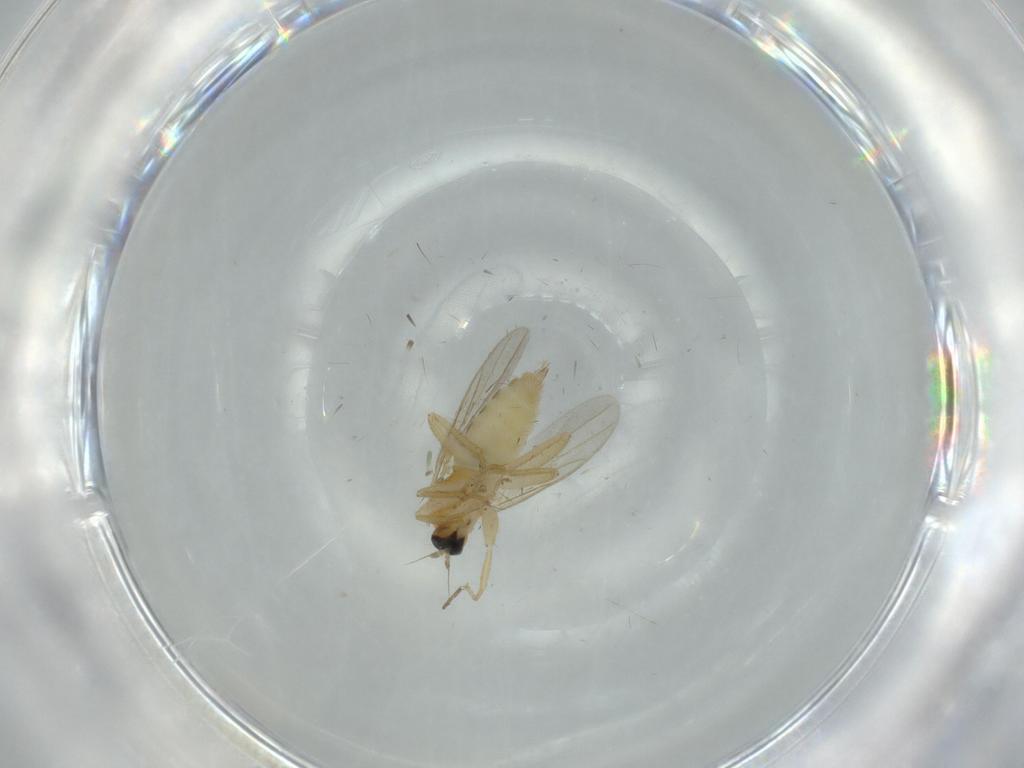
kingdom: Animalia
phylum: Arthropoda
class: Insecta
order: Diptera
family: Hybotidae
